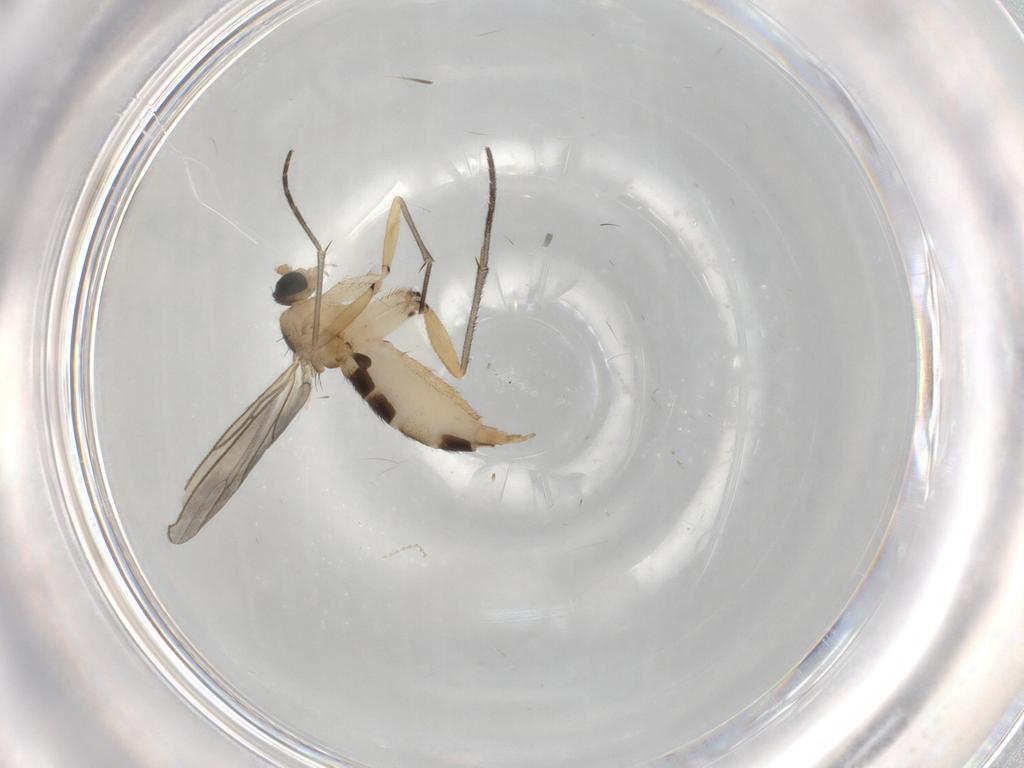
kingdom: Animalia
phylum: Arthropoda
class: Insecta
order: Diptera
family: Sciaridae
